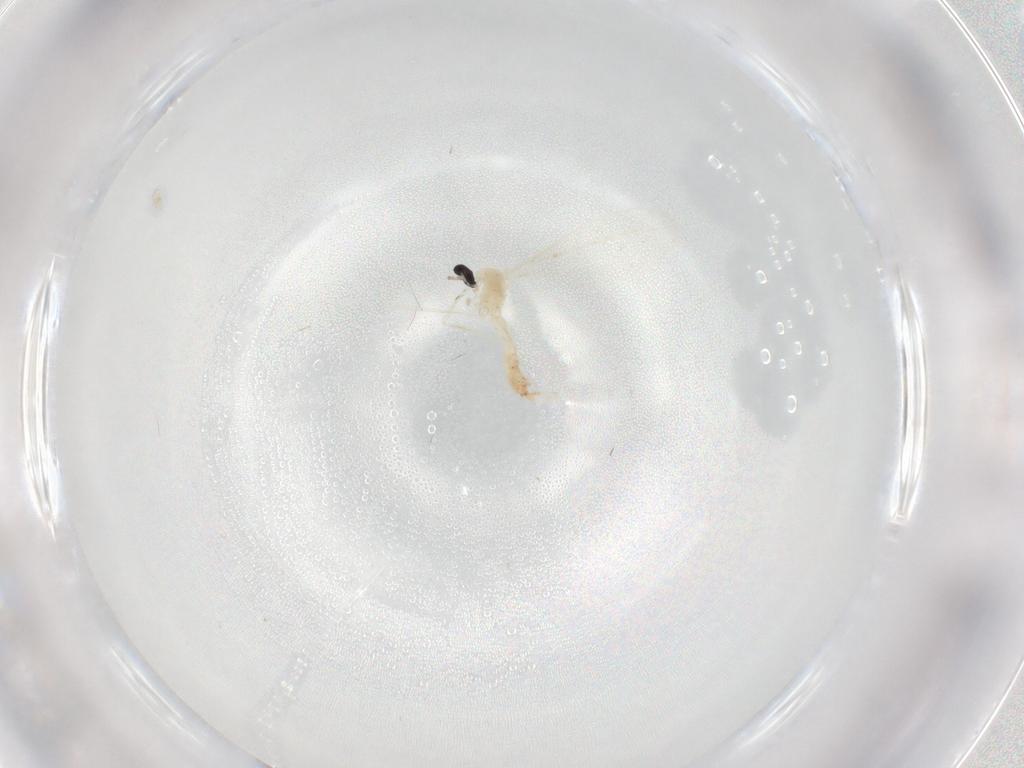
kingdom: Animalia
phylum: Arthropoda
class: Insecta
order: Diptera
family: Cecidomyiidae
